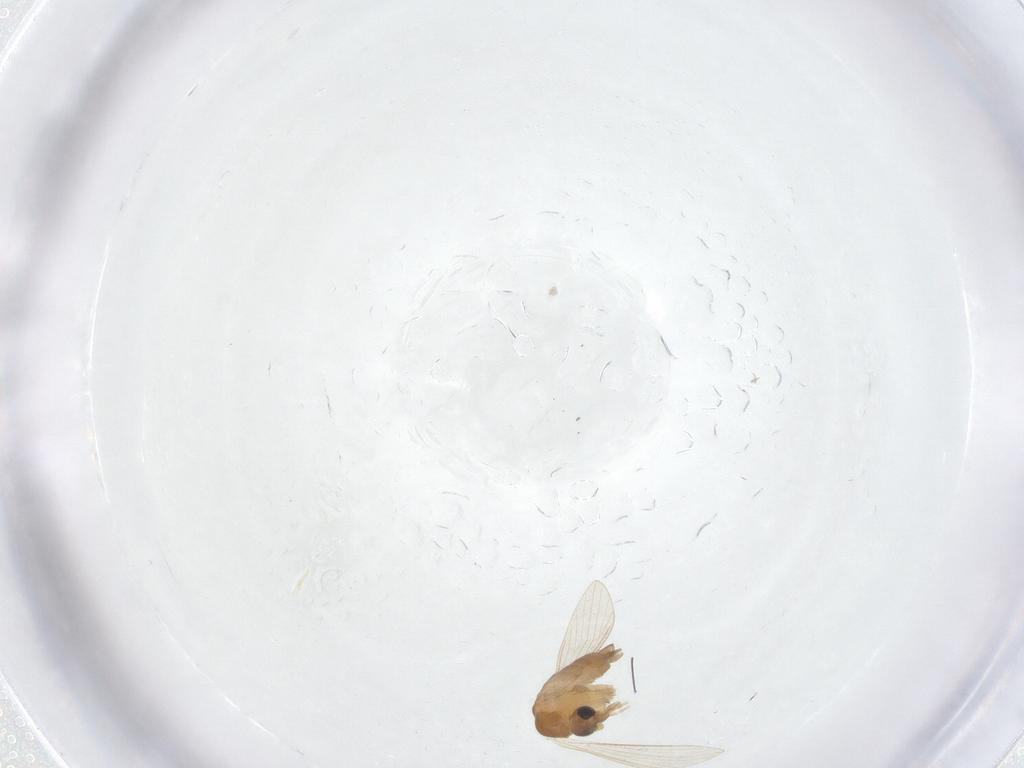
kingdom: Animalia
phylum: Arthropoda
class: Insecta
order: Diptera
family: Psychodidae
